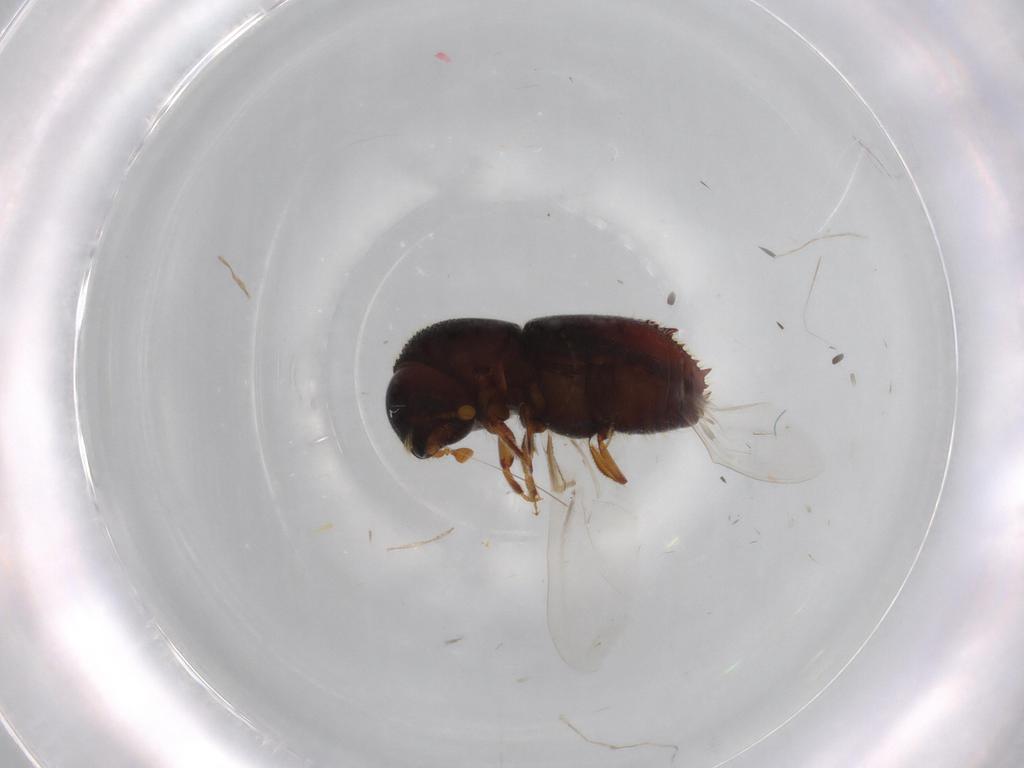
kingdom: Animalia
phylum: Arthropoda
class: Insecta
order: Coleoptera
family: Curculionidae
